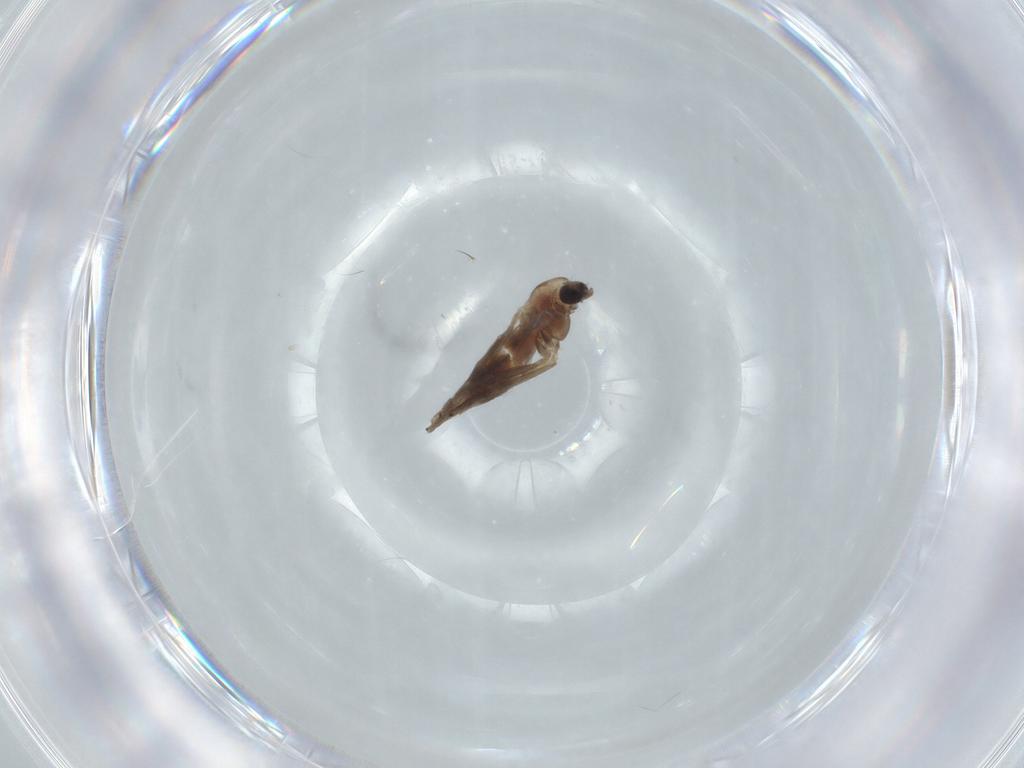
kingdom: Animalia
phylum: Arthropoda
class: Insecta
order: Diptera
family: Chironomidae
